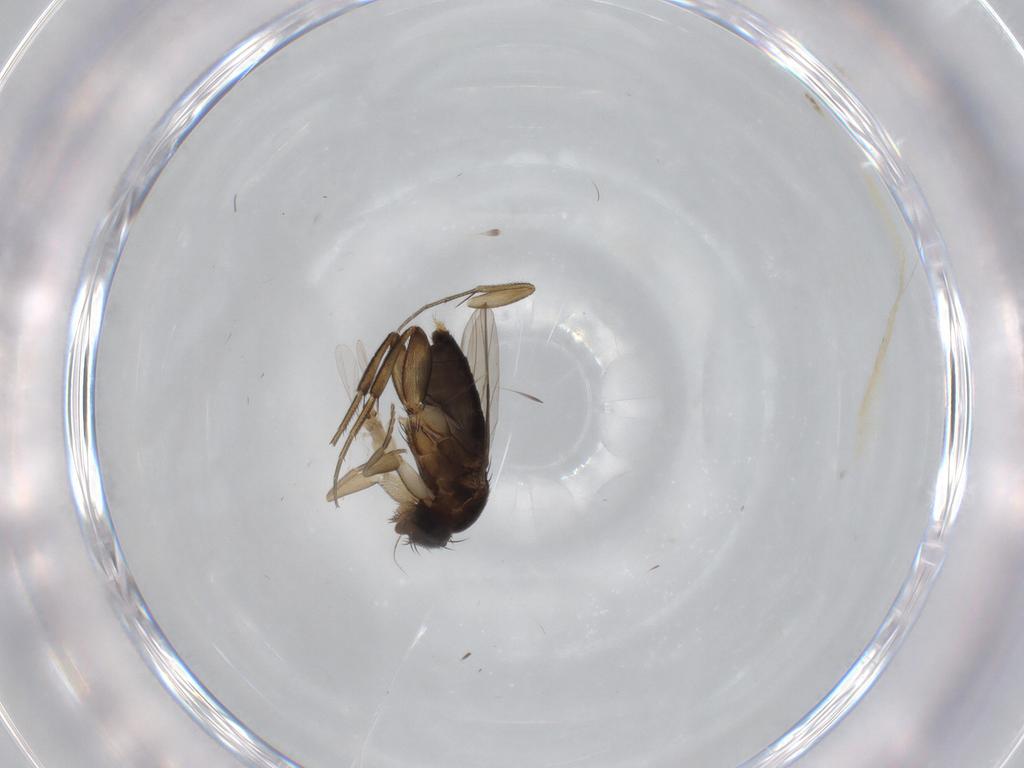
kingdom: Animalia
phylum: Arthropoda
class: Insecta
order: Diptera
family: Phoridae
